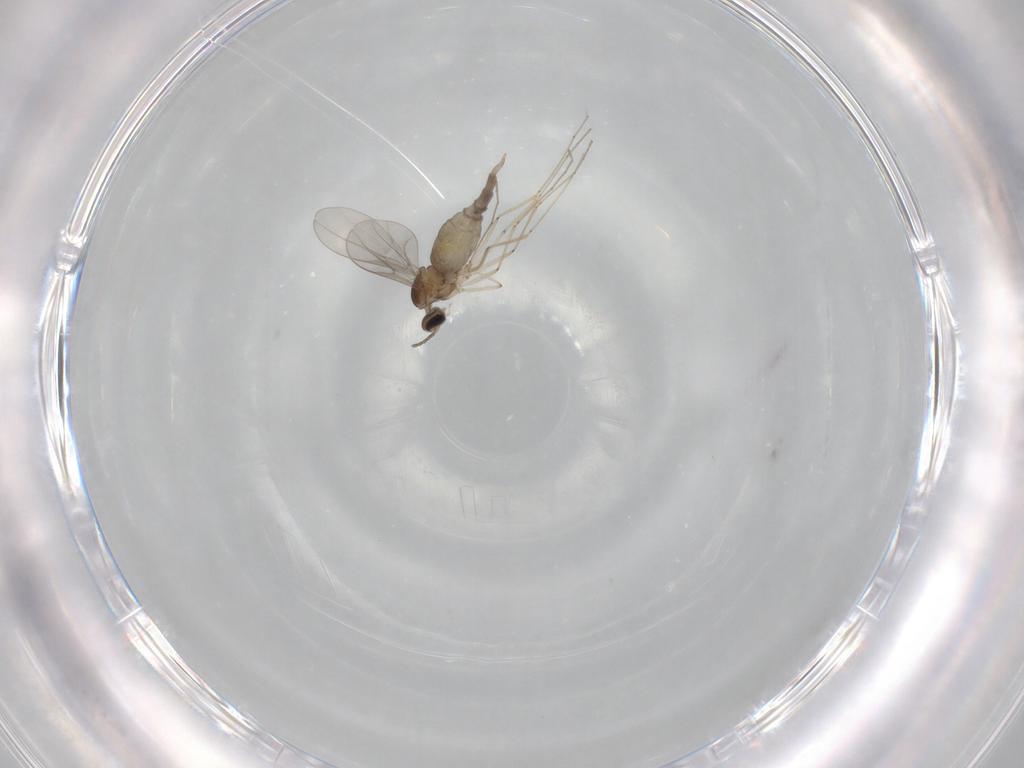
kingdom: Animalia
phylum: Arthropoda
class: Insecta
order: Diptera
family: Cecidomyiidae
